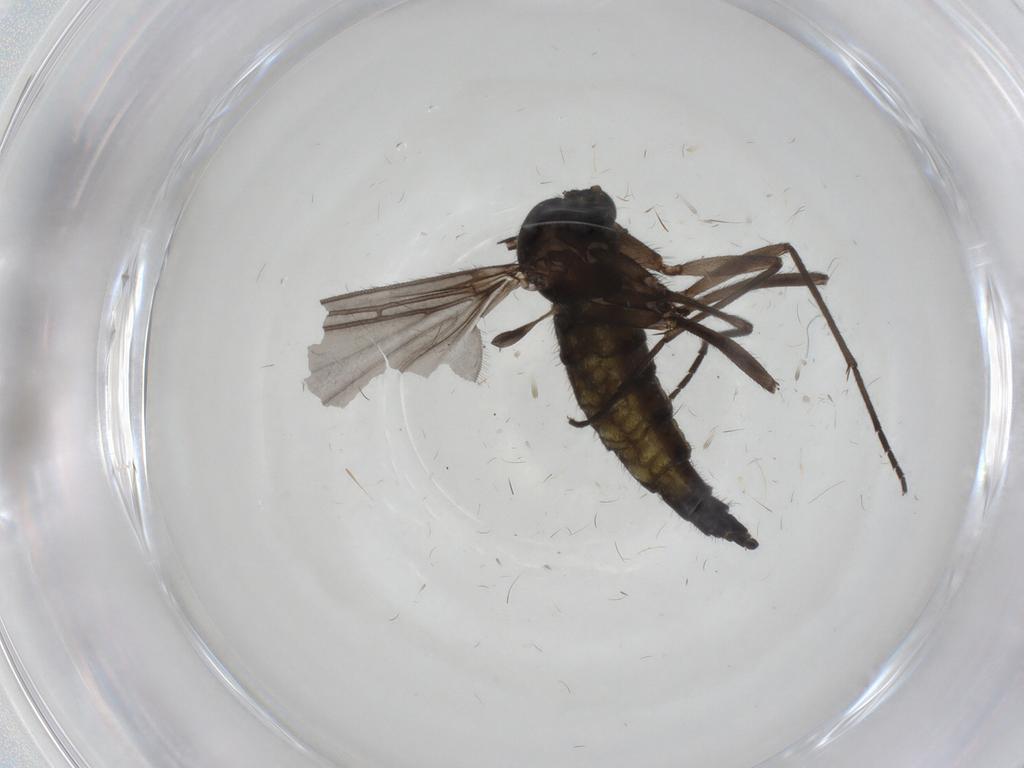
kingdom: Animalia
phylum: Arthropoda
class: Insecta
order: Diptera
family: Sciaridae
